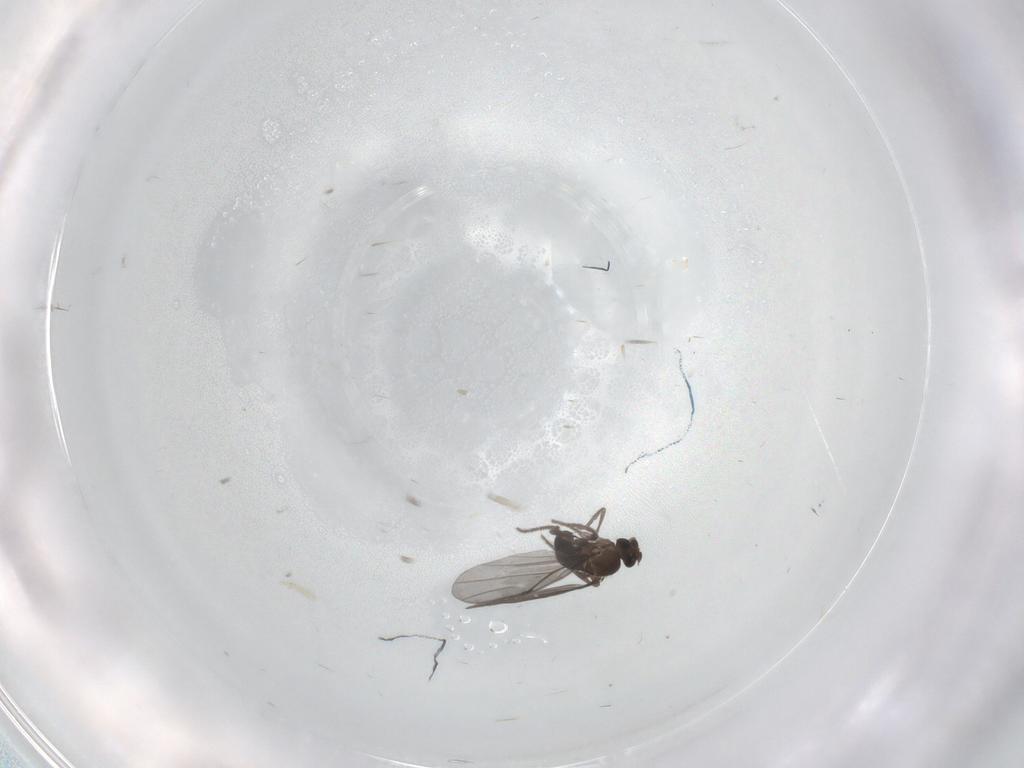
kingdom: Animalia
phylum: Arthropoda
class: Insecta
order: Diptera
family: Phoridae
